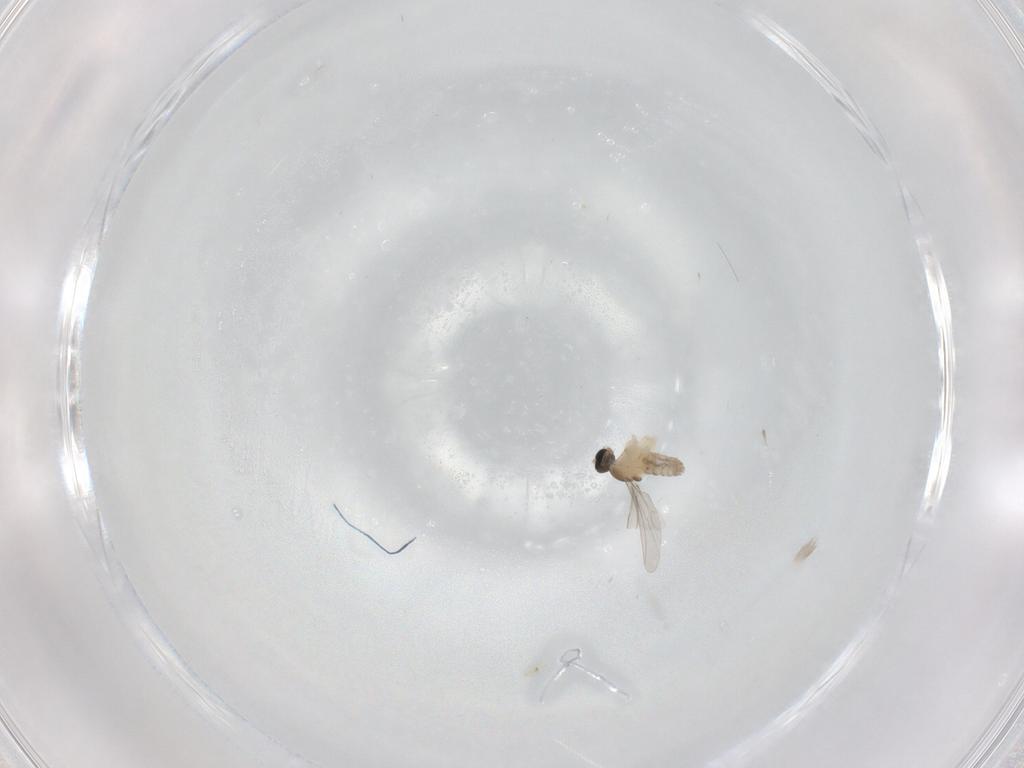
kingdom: Animalia
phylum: Arthropoda
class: Insecta
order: Diptera
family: Cecidomyiidae
